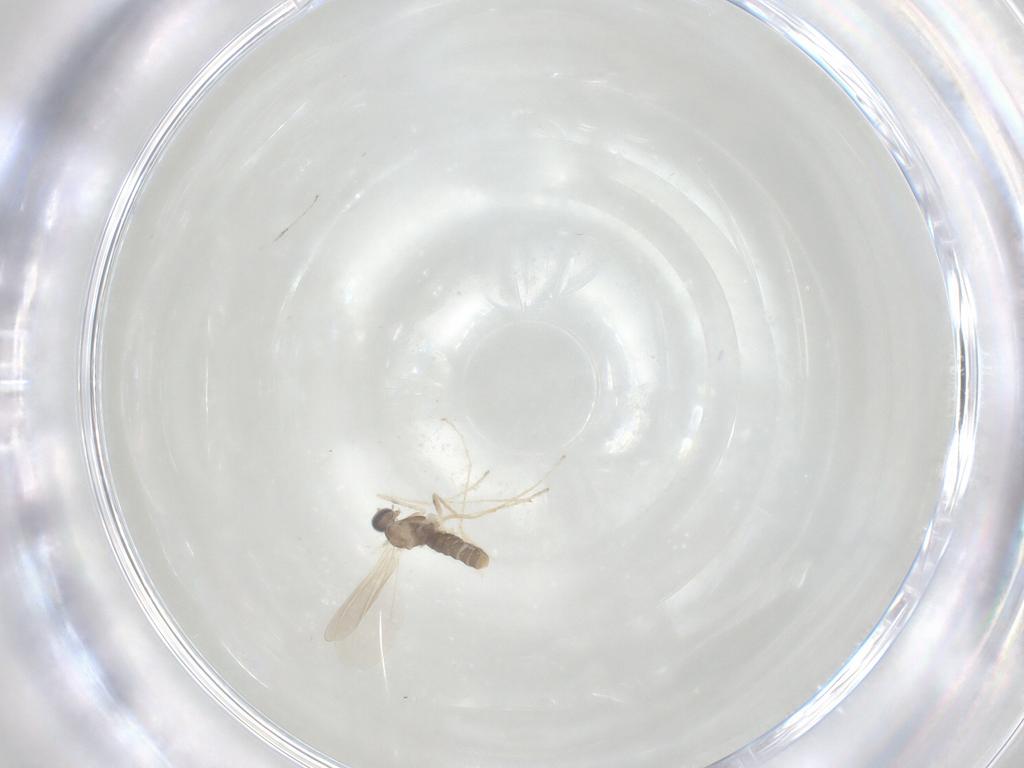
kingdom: Animalia
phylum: Arthropoda
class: Insecta
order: Diptera
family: Cecidomyiidae
